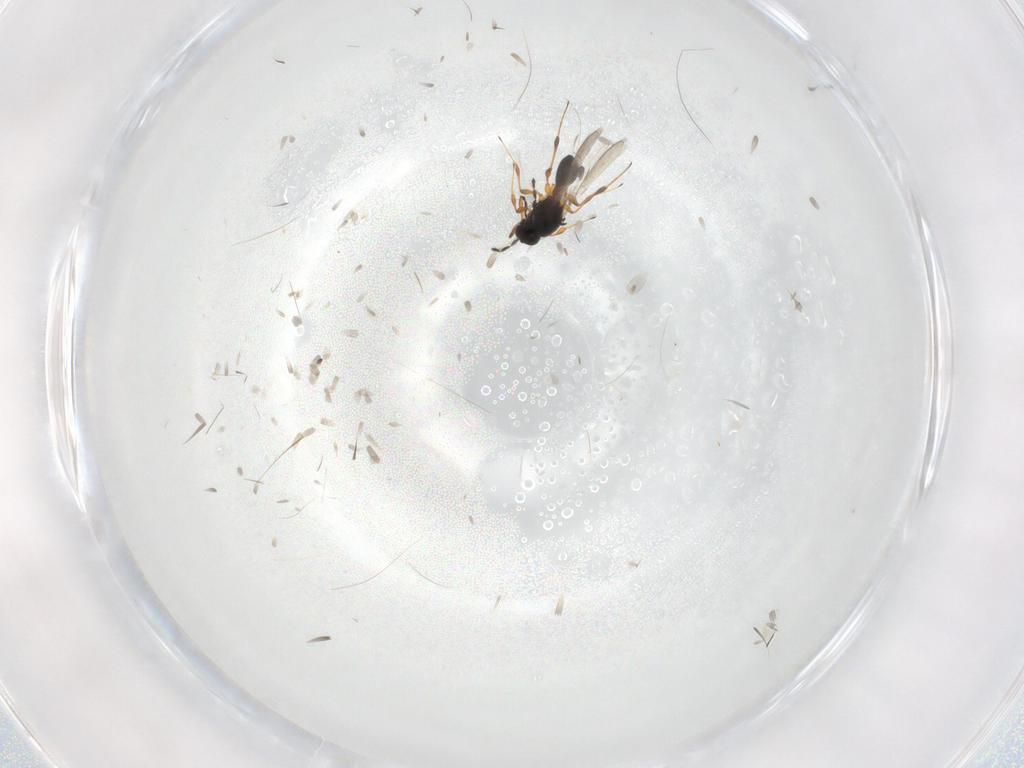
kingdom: Animalia
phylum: Arthropoda
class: Insecta
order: Hymenoptera
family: Platygastridae
